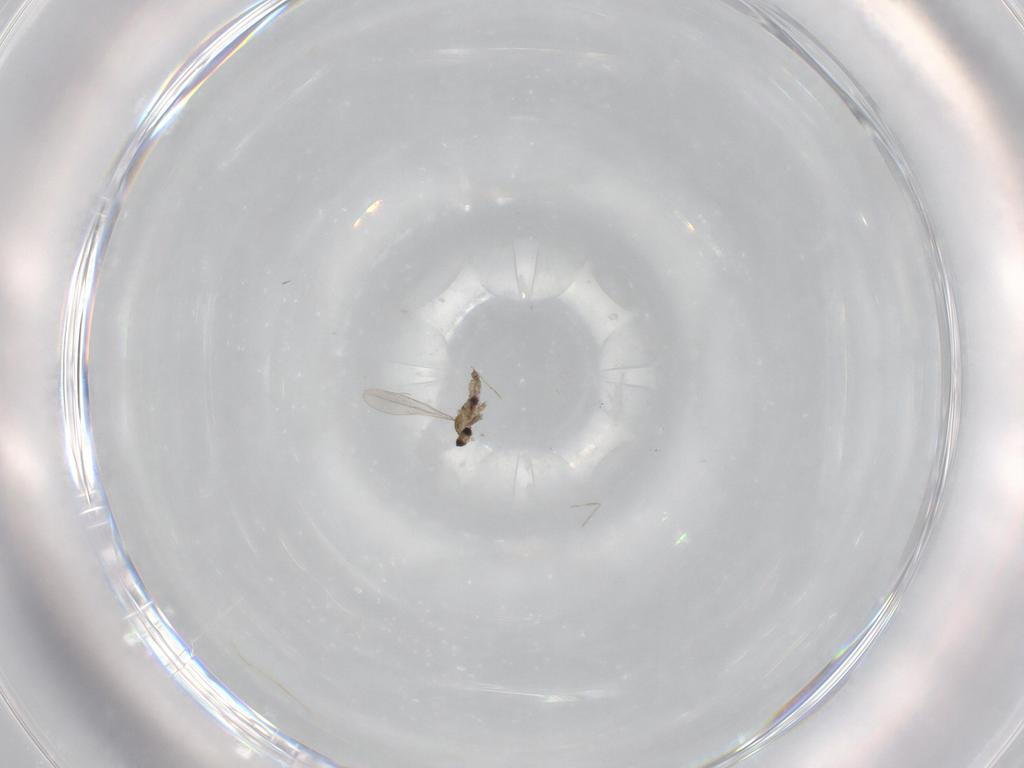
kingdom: Animalia
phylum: Arthropoda
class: Insecta
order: Diptera
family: Cecidomyiidae
